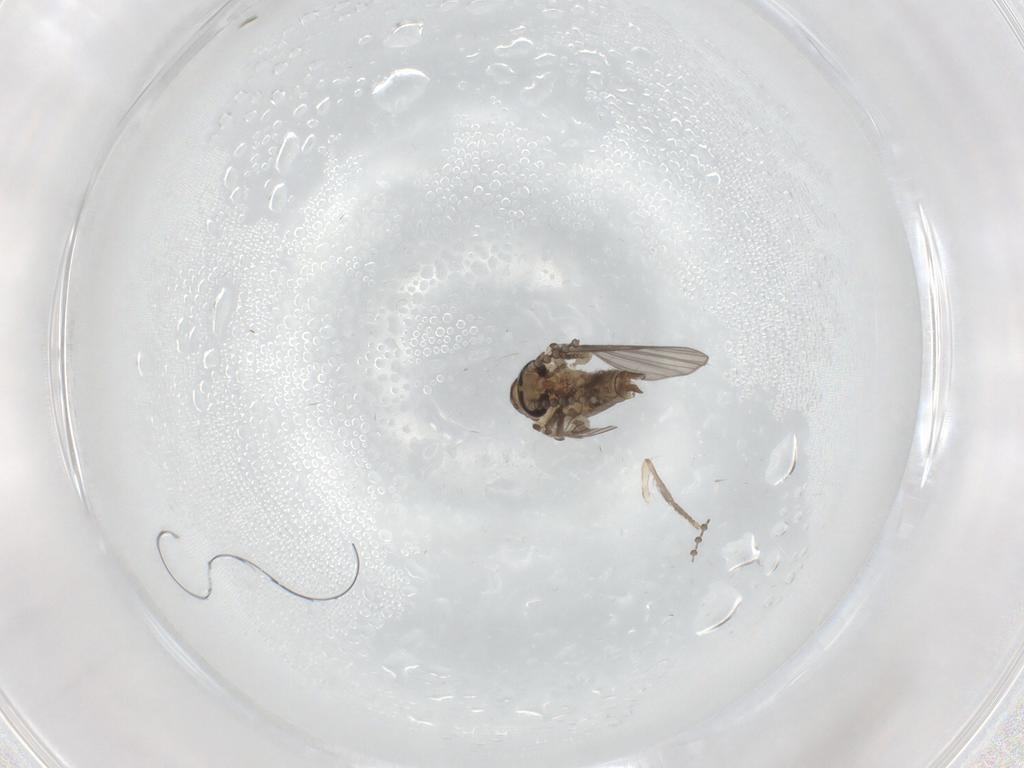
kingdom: Animalia
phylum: Arthropoda
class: Insecta
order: Diptera
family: Psychodidae
